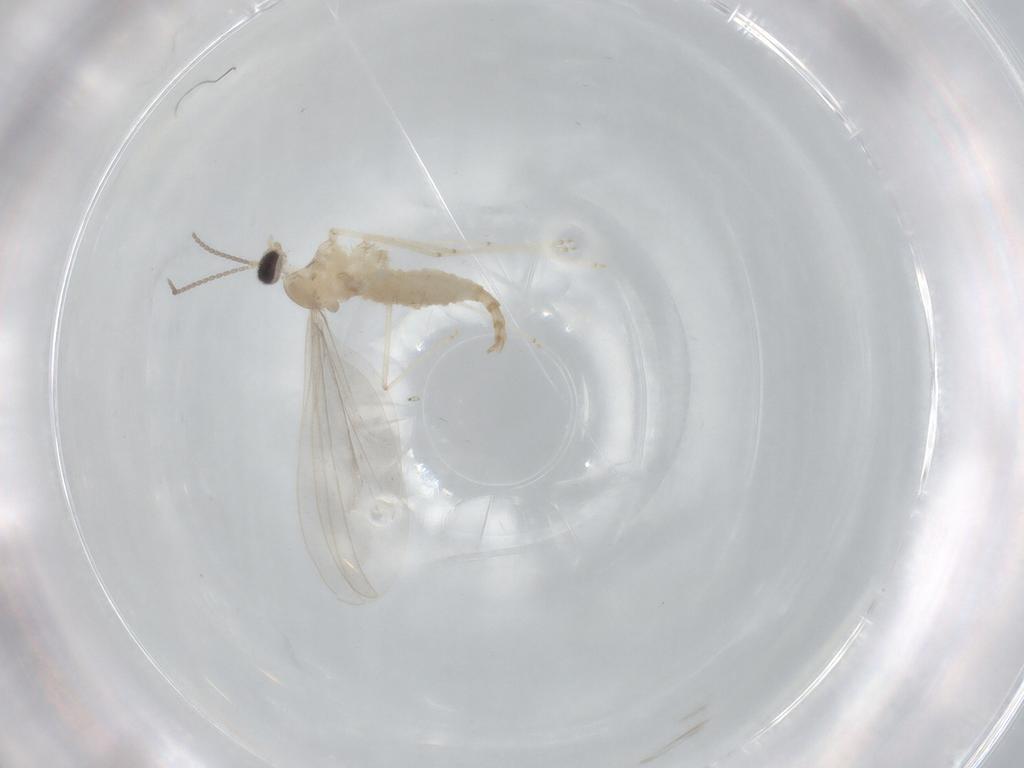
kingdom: Animalia
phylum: Arthropoda
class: Insecta
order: Diptera
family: Cecidomyiidae
